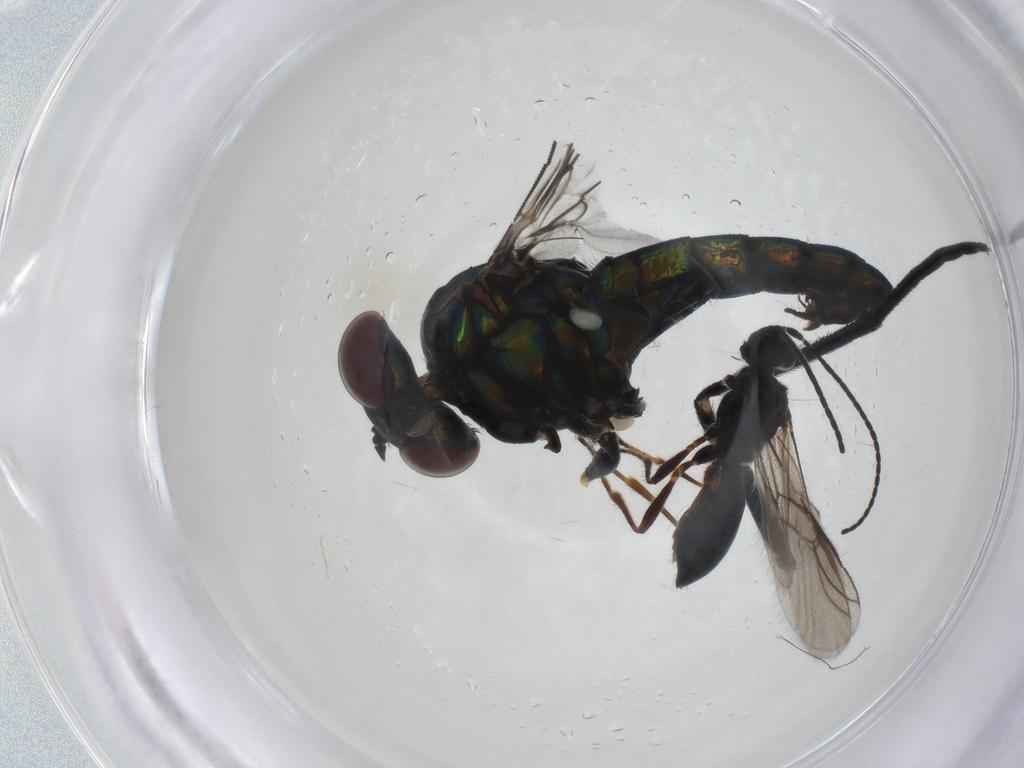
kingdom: Animalia
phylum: Arthropoda
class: Insecta
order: Diptera
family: Dolichopodidae
